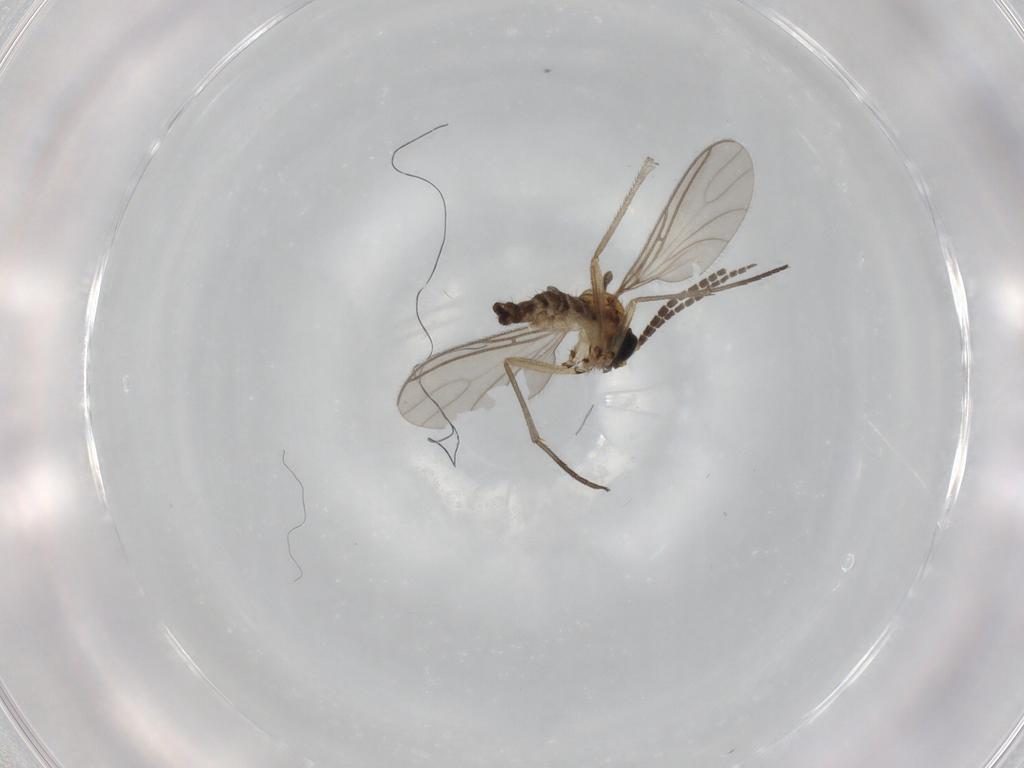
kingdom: Animalia
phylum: Arthropoda
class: Insecta
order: Diptera
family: Sciaridae
